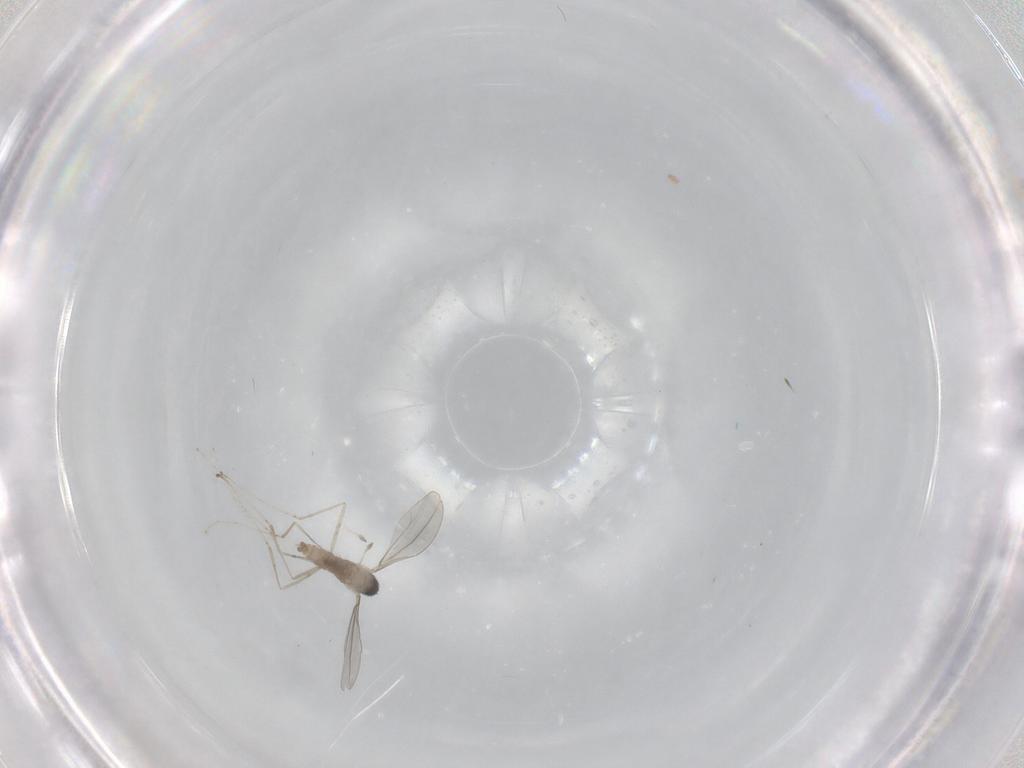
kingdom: Animalia
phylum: Arthropoda
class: Insecta
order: Diptera
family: Cecidomyiidae
